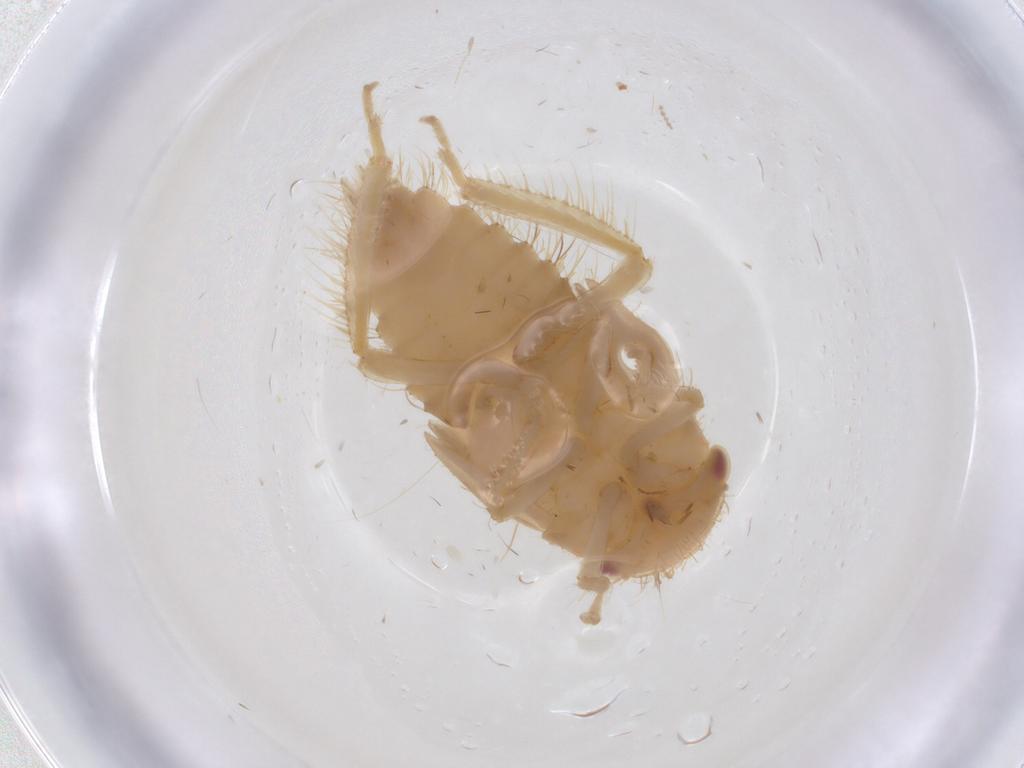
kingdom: Animalia
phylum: Arthropoda
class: Insecta
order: Hemiptera
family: Cicadellidae
